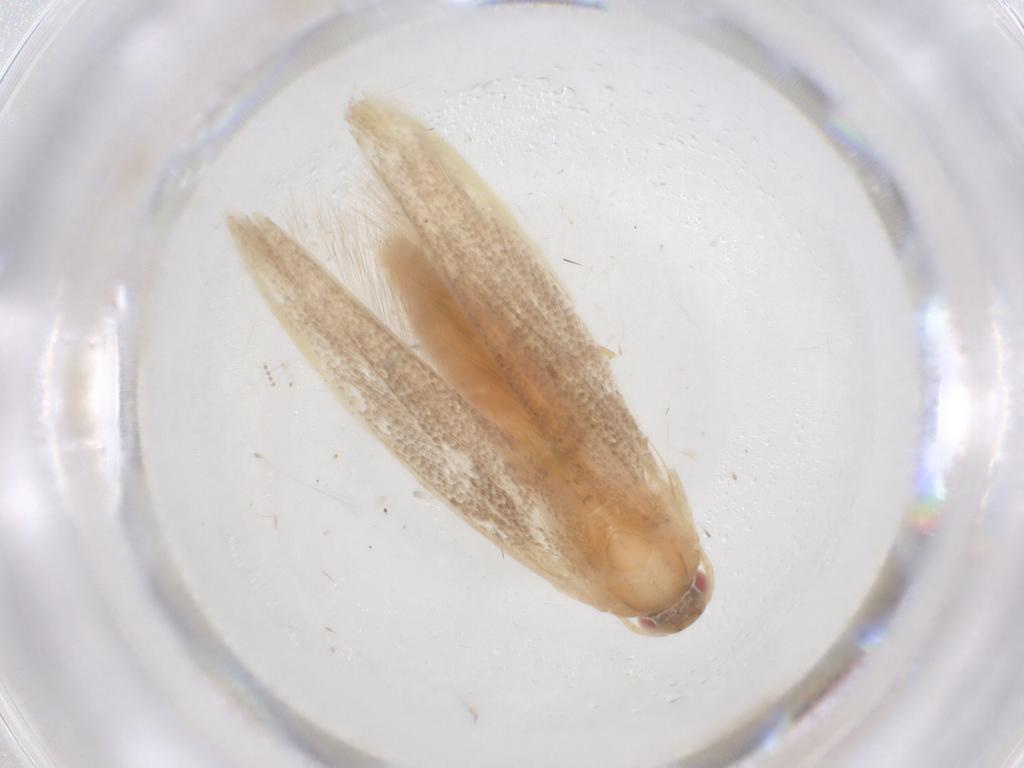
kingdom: Animalia
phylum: Arthropoda
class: Insecta
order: Lepidoptera
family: Cosmopterigidae
